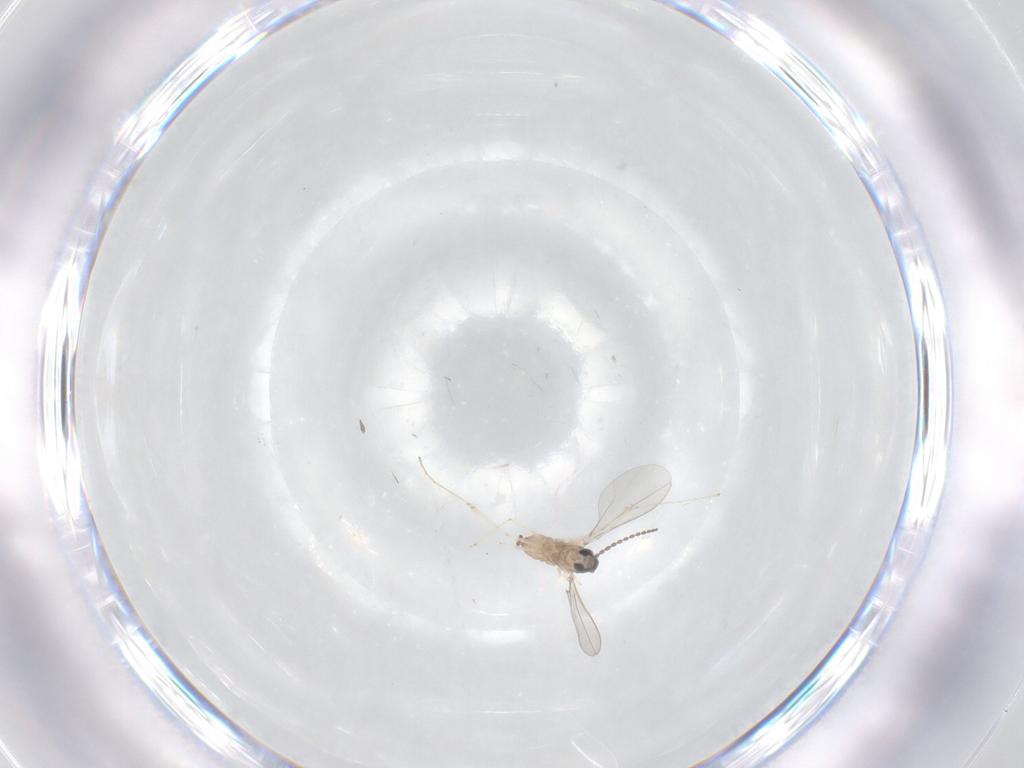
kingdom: Animalia
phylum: Arthropoda
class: Insecta
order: Diptera
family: Cecidomyiidae
